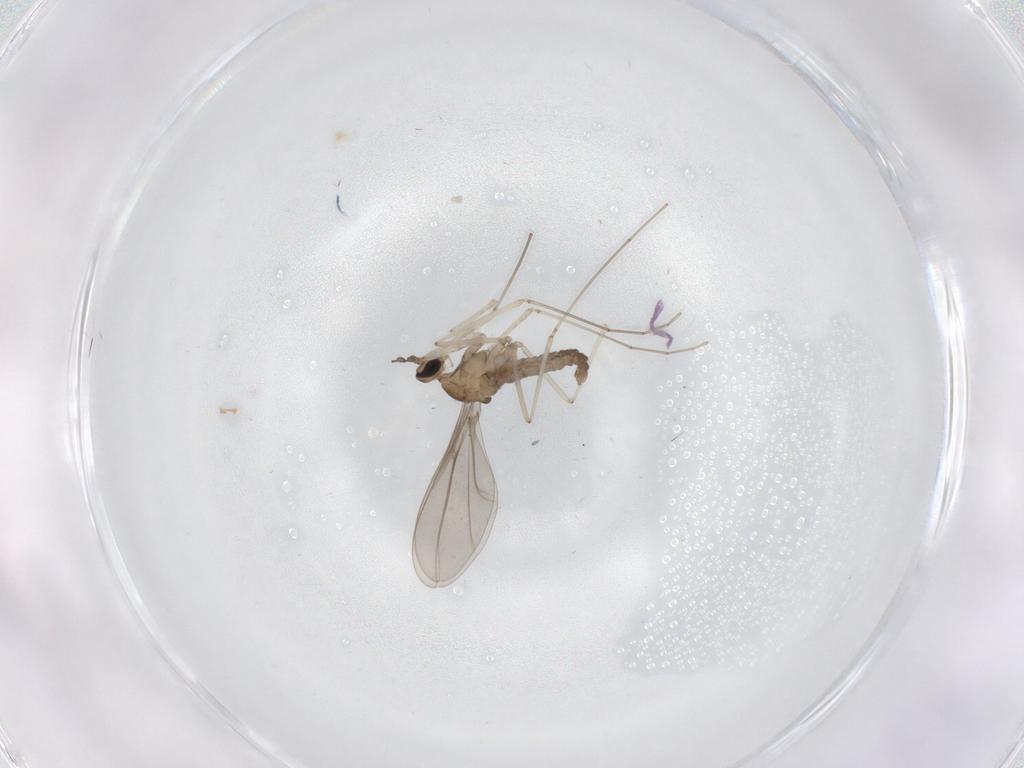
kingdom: Animalia
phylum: Arthropoda
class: Insecta
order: Diptera
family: Cecidomyiidae
